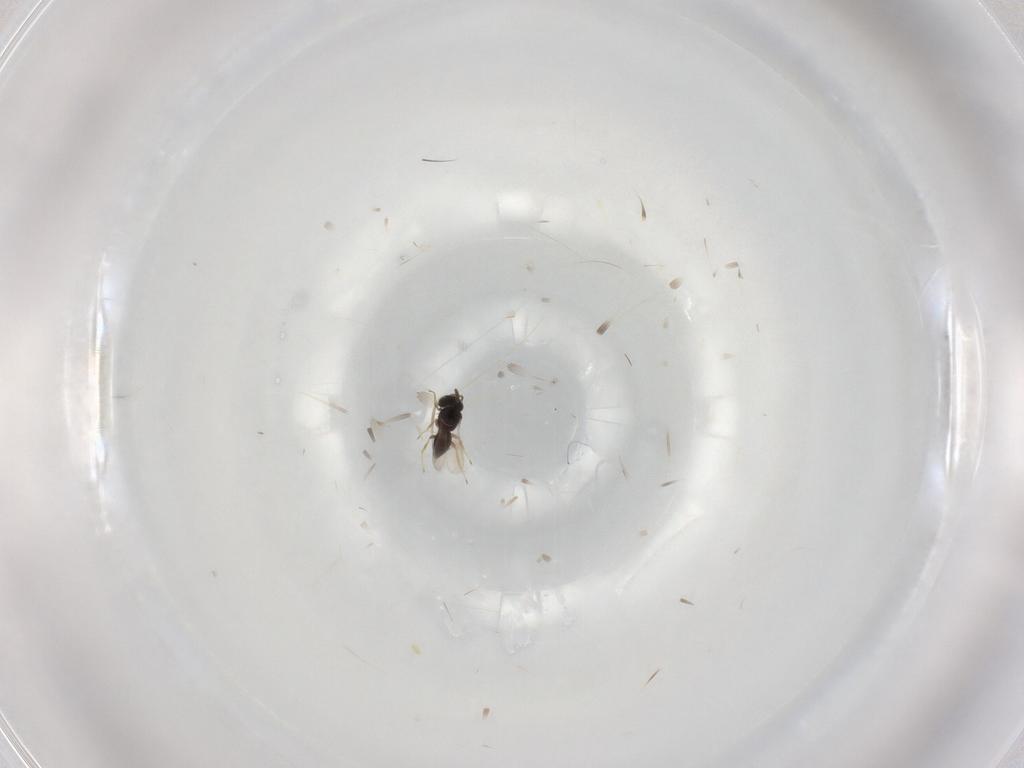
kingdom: Animalia
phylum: Arthropoda
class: Insecta
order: Hymenoptera
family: Scelionidae
